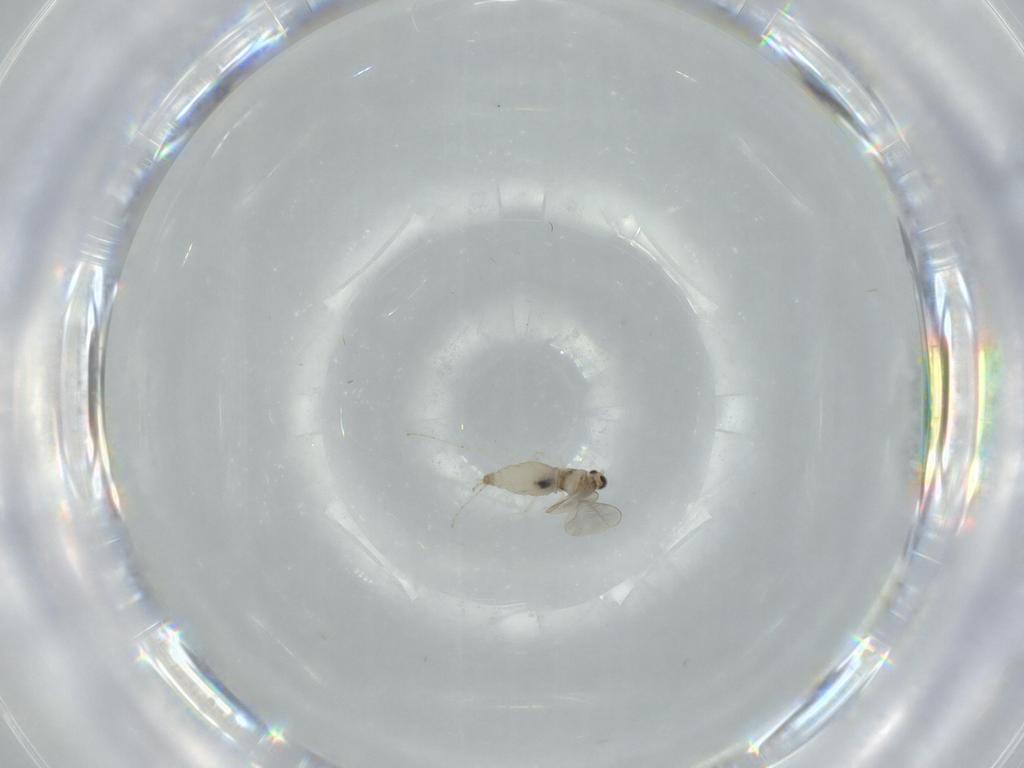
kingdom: Animalia
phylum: Arthropoda
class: Insecta
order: Diptera
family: Cecidomyiidae
